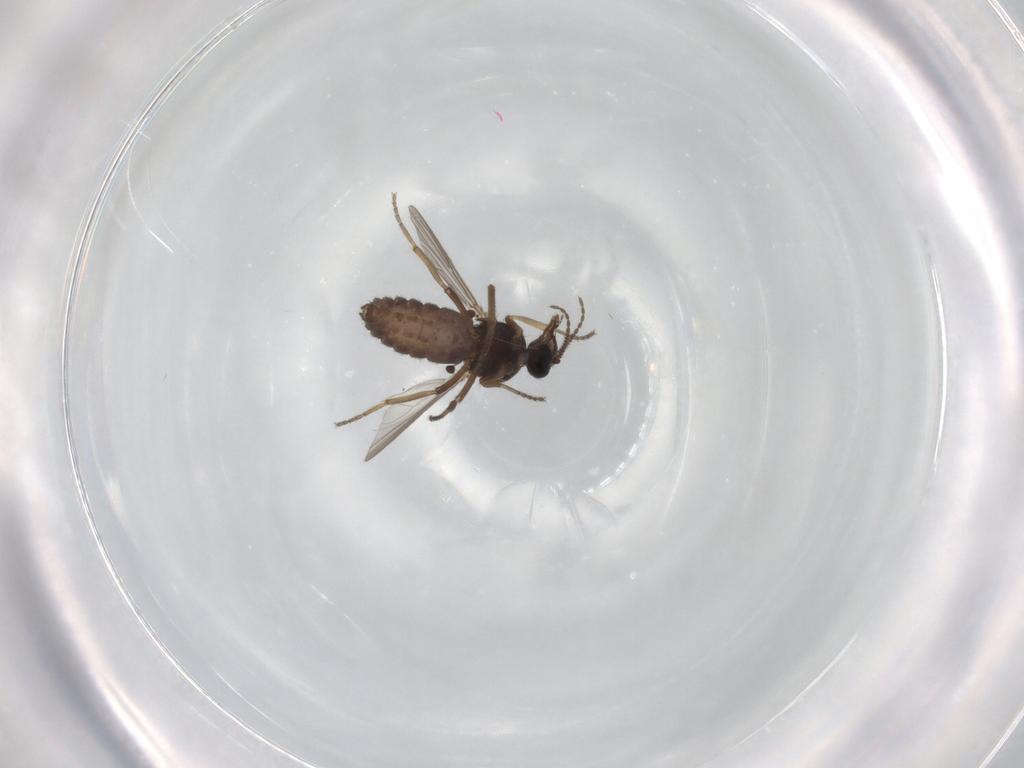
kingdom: Animalia
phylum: Arthropoda
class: Insecta
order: Diptera
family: Ceratopogonidae
